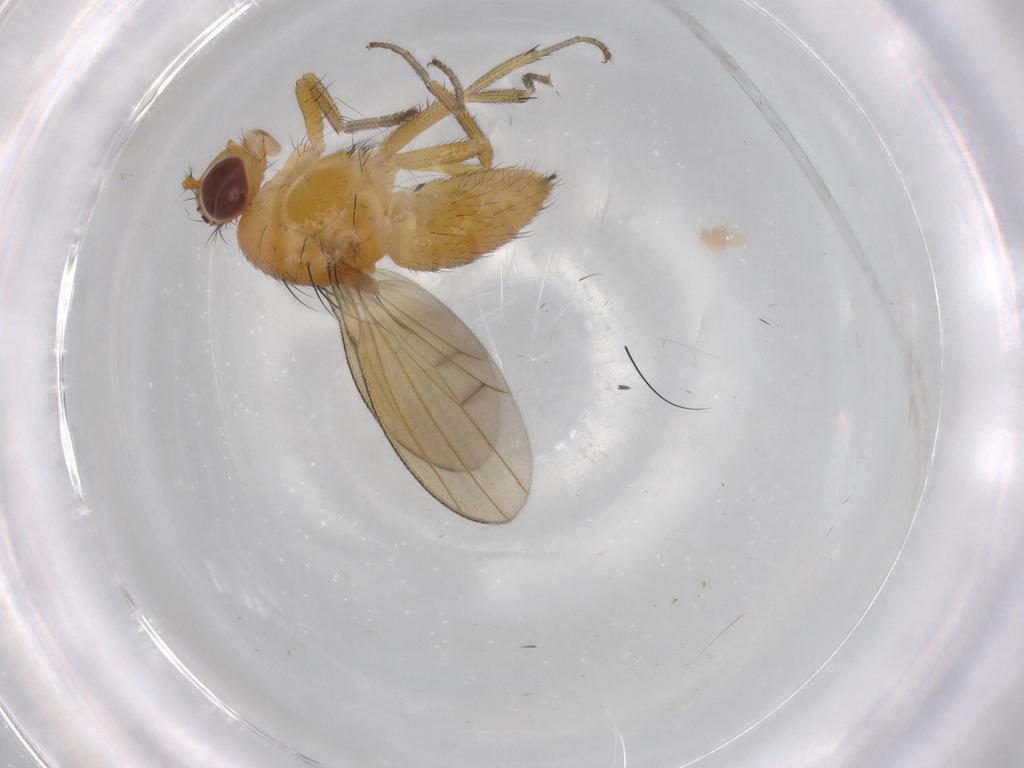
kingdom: Animalia
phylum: Arthropoda
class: Insecta
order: Diptera
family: Lauxaniidae
